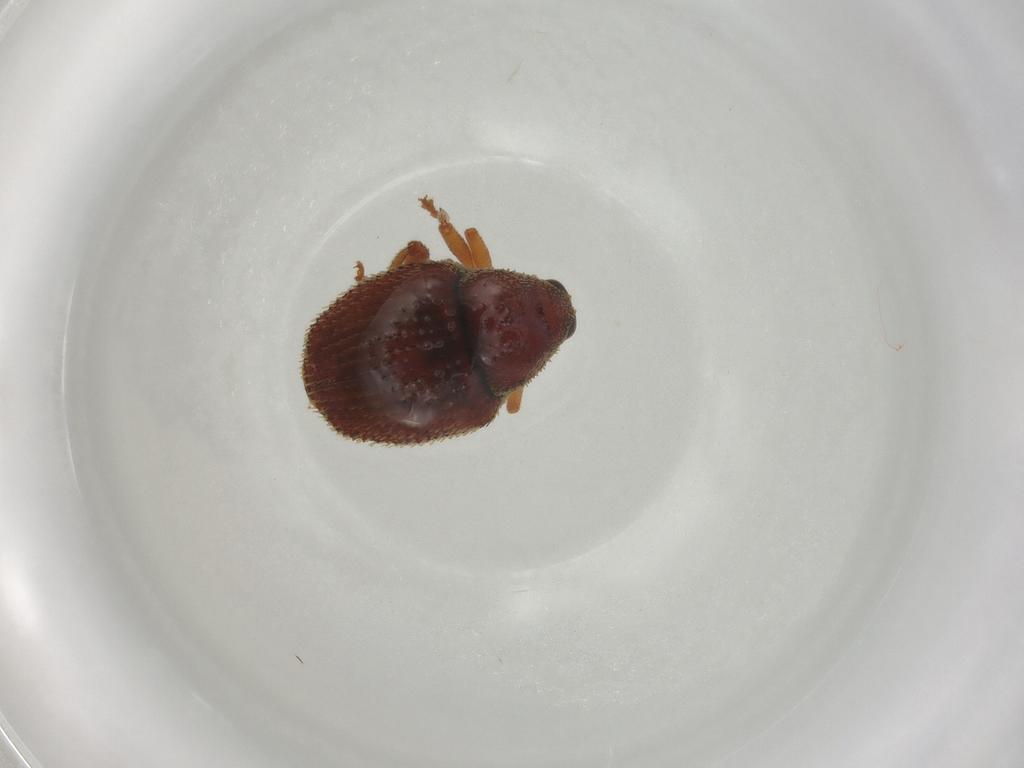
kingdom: Animalia
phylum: Arthropoda
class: Insecta
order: Coleoptera
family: Curculionidae
